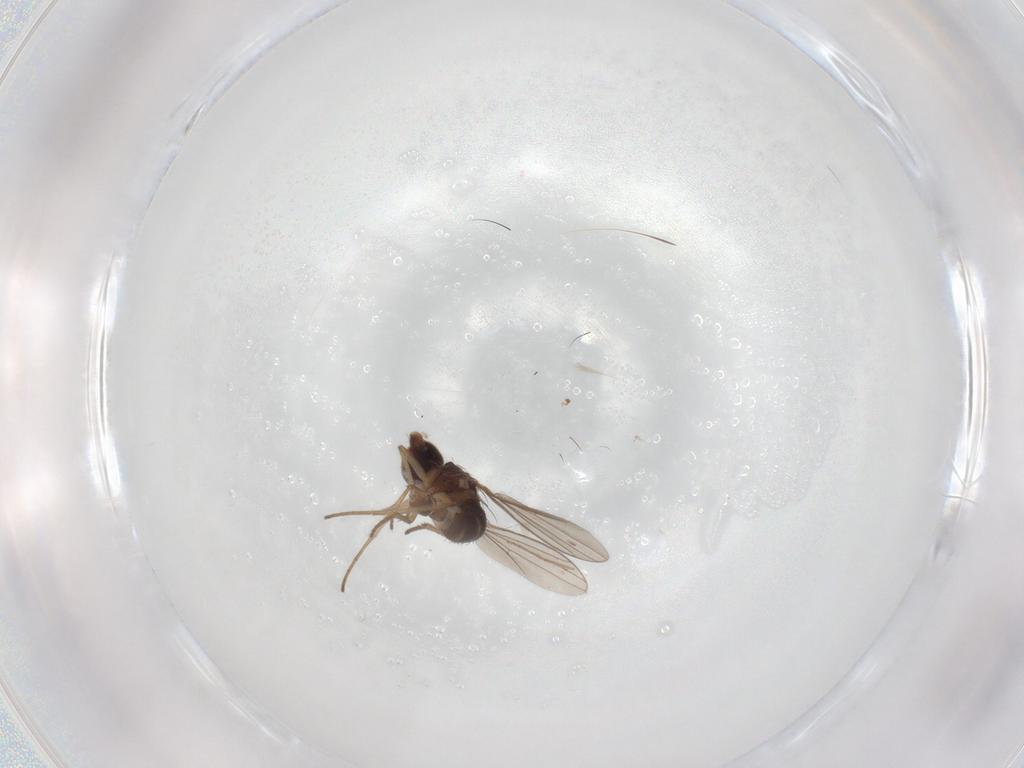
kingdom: Animalia
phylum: Arthropoda
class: Insecta
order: Diptera
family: Dolichopodidae
